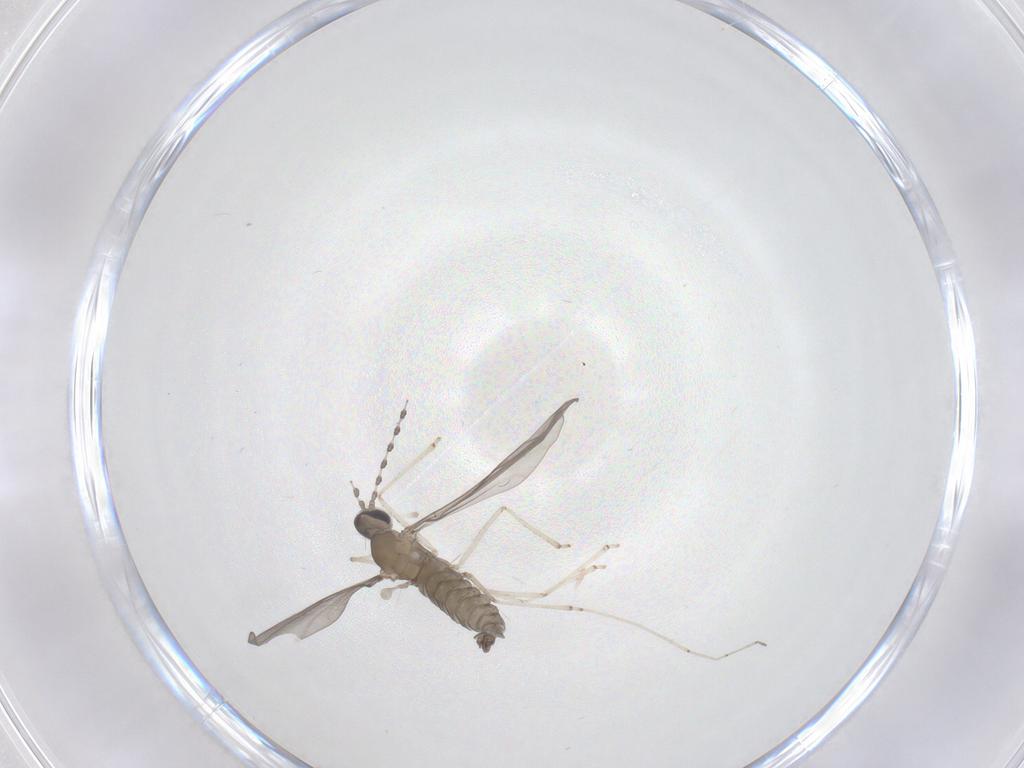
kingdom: Animalia
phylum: Arthropoda
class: Insecta
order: Diptera
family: Cecidomyiidae
